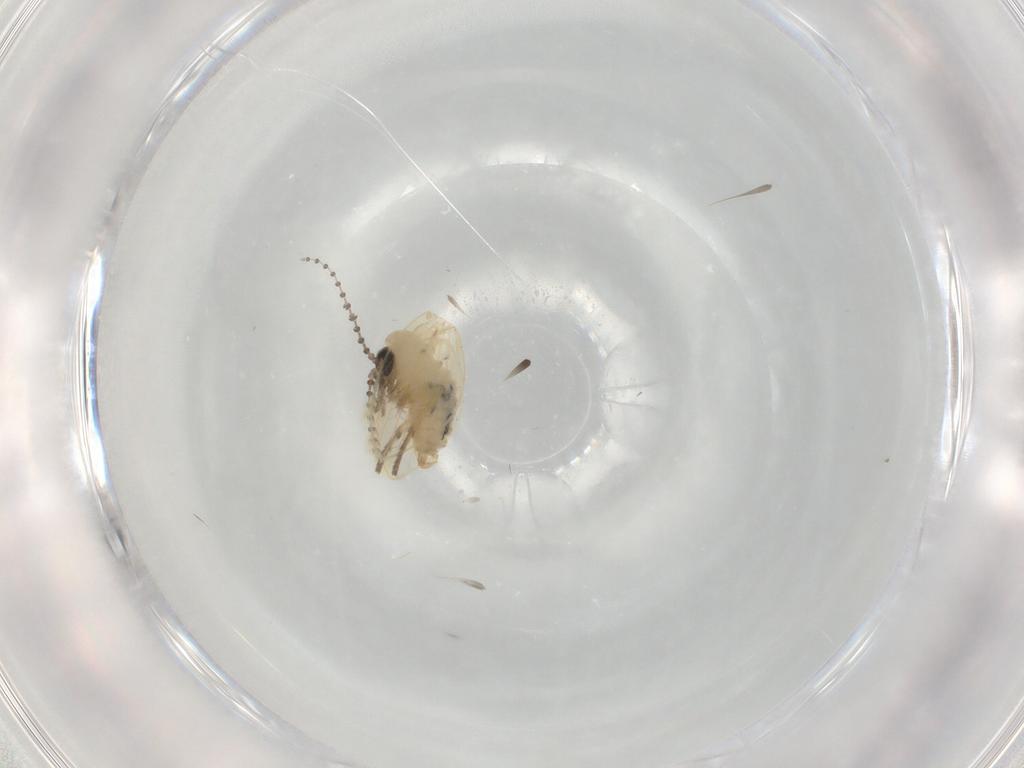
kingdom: Animalia
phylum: Arthropoda
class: Insecta
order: Diptera
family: Psychodidae
